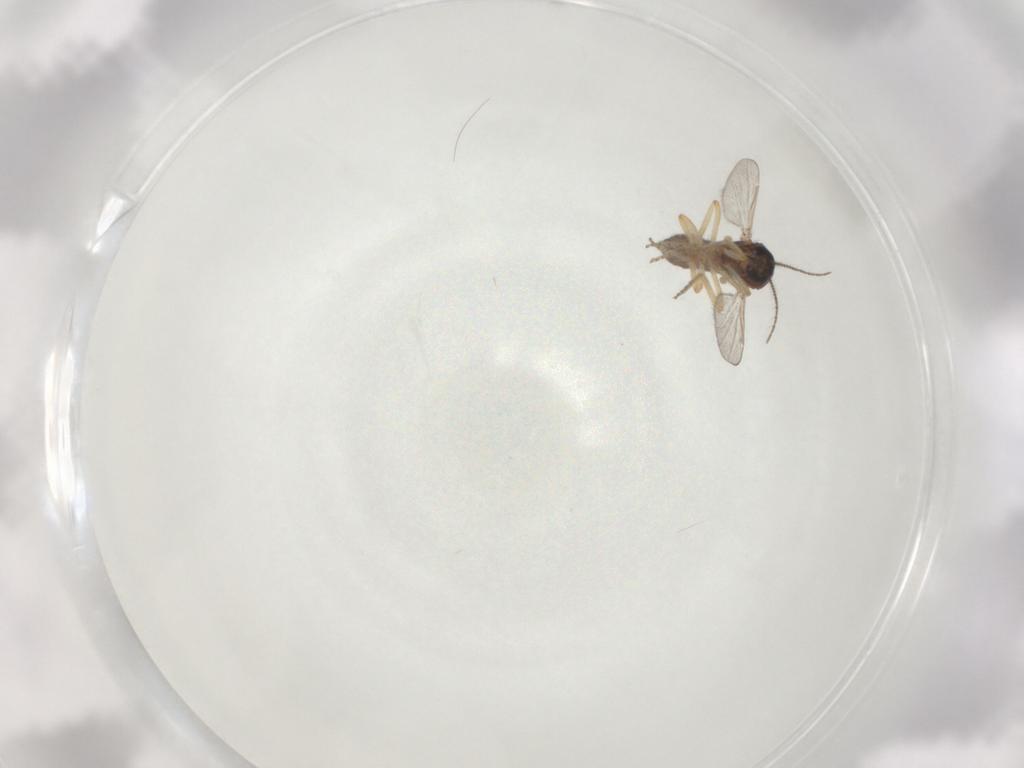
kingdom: Animalia
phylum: Arthropoda
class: Insecta
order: Diptera
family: Ceratopogonidae
